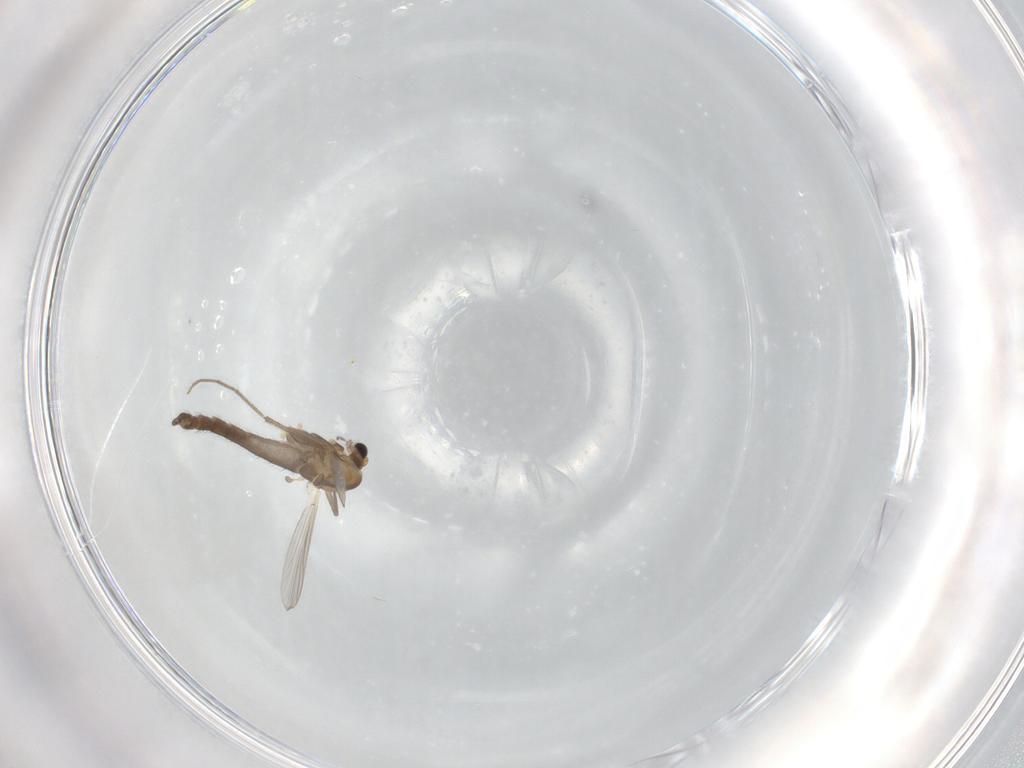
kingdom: Animalia
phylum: Arthropoda
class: Insecta
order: Diptera
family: Chironomidae
